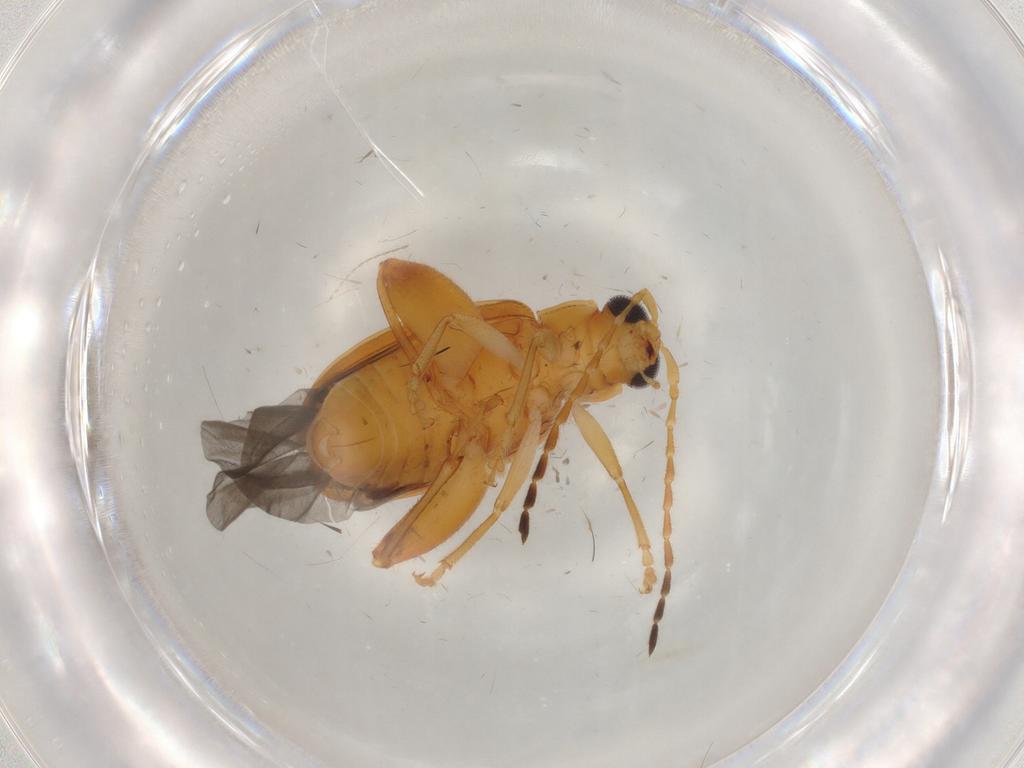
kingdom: Animalia
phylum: Arthropoda
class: Insecta
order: Coleoptera
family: Chrysomelidae
